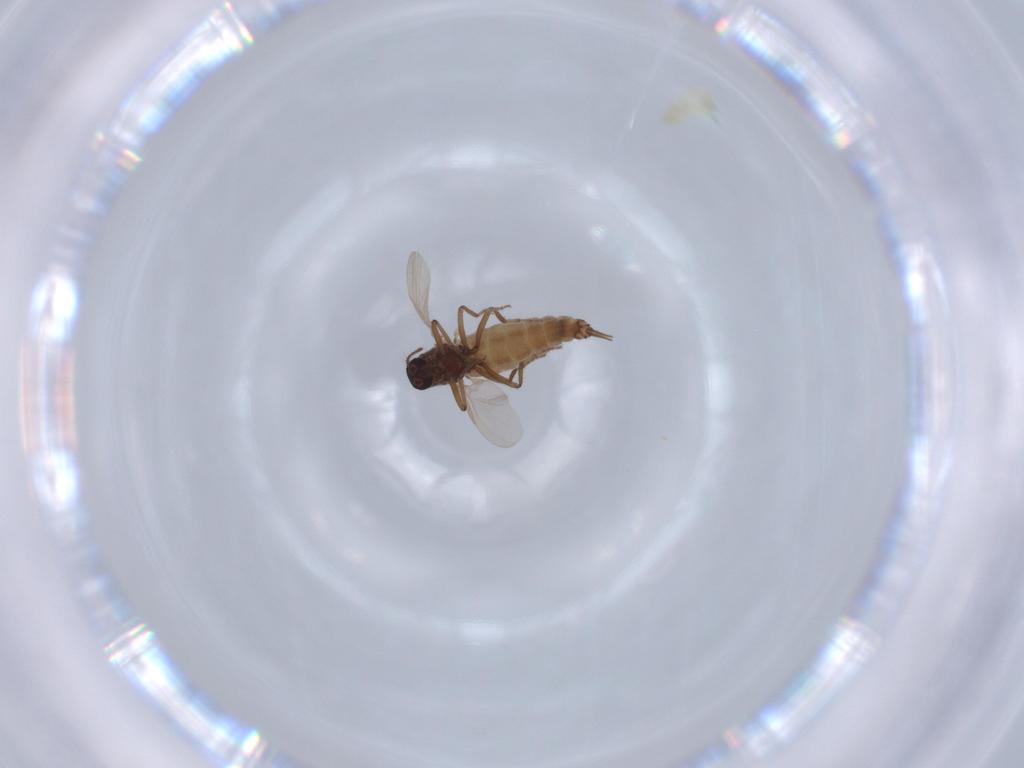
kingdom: Animalia
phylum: Arthropoda
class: Insecta
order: Diptera
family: Ceratopogonidae
